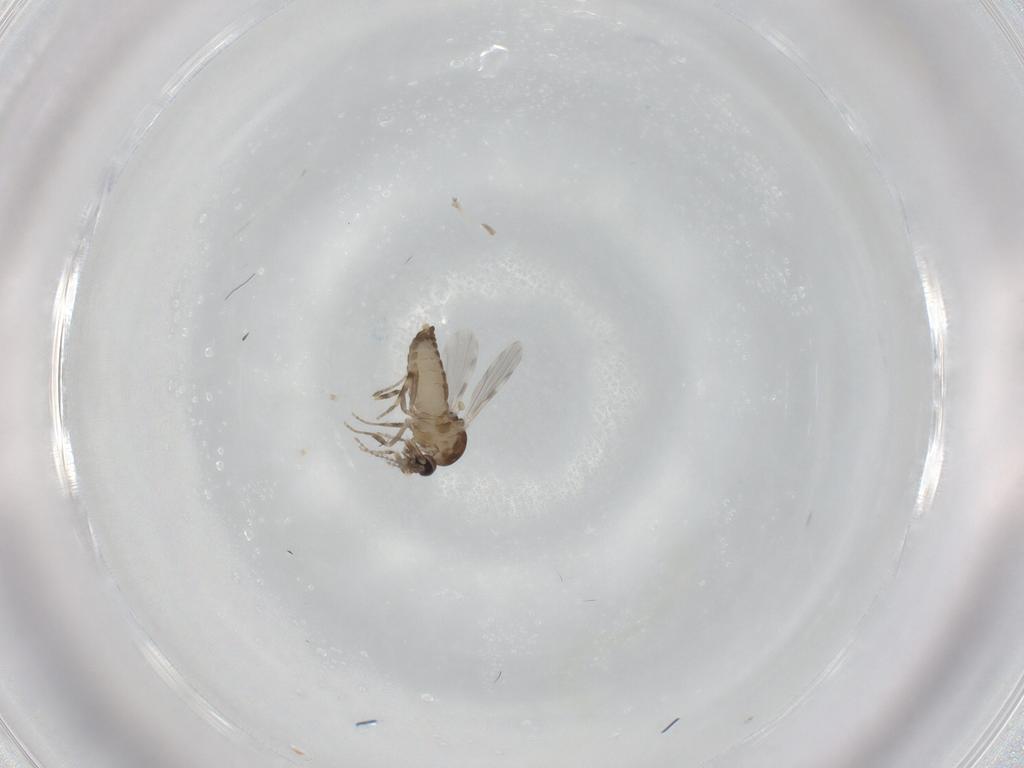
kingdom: Animalia
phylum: Arthropoda
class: Insecta
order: Diptera
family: Ceratopogonidae
